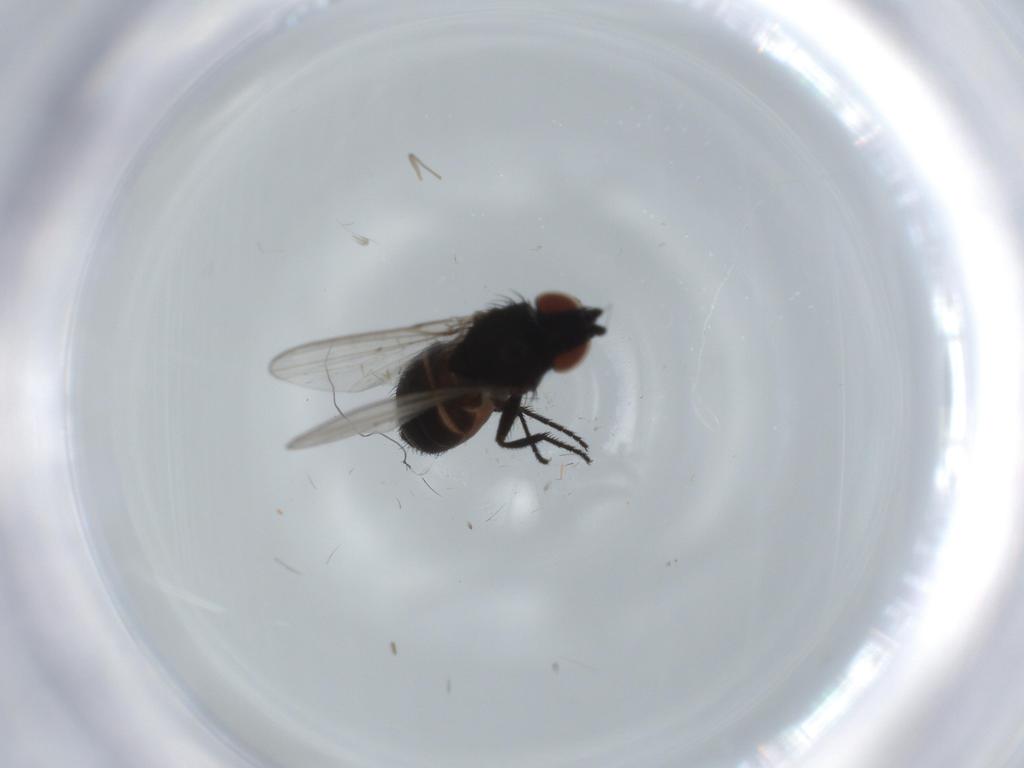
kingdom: Animalia
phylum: Arthropoda
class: Insecta
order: Diptera
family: Milichiidae
